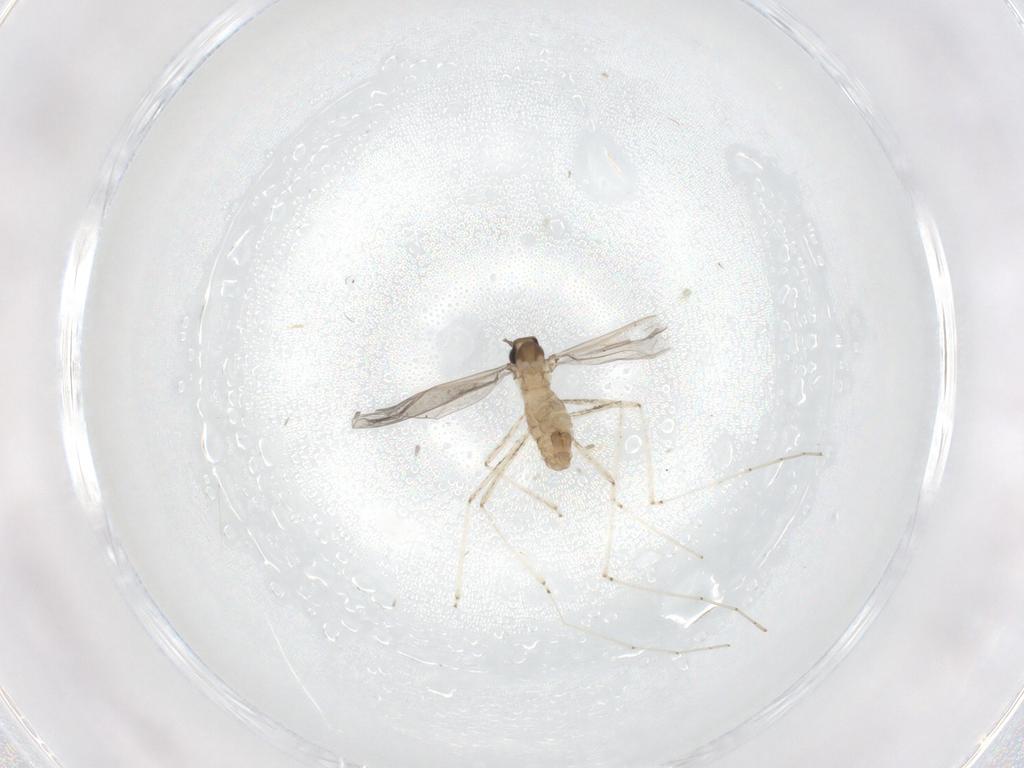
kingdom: Animalia
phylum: Arthropoda
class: Insecta
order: Diptera
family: Cecidomyiidae
